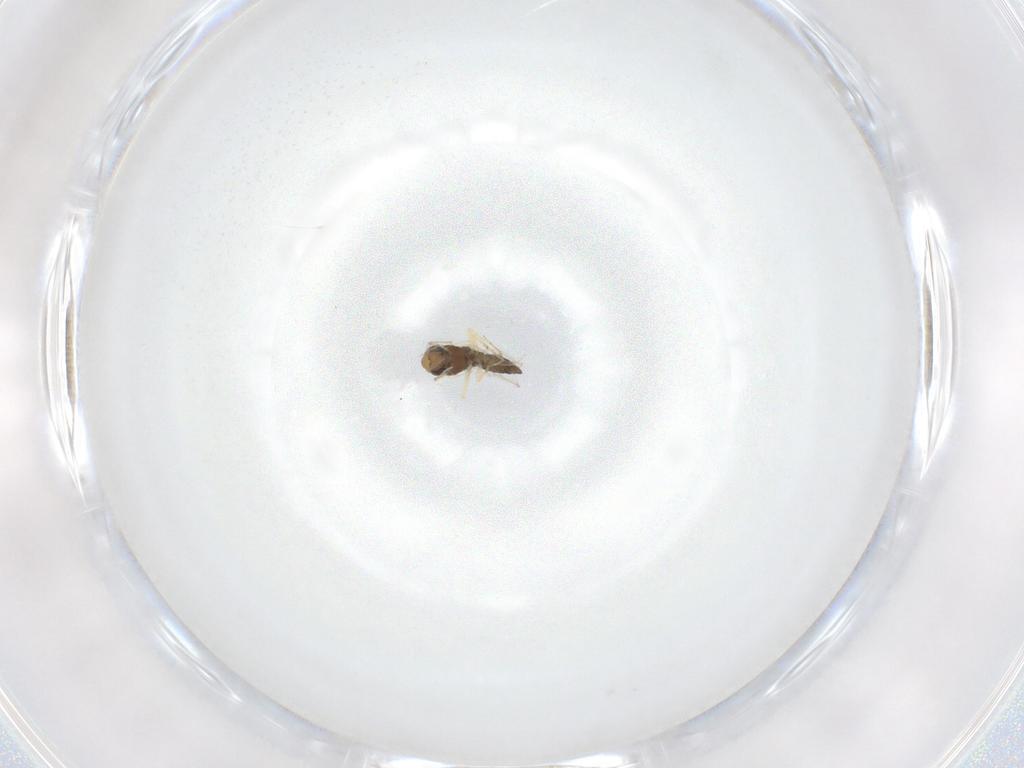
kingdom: Animalia
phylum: Arthropoda
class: Insecta
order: Diptera
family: Chironomidae
